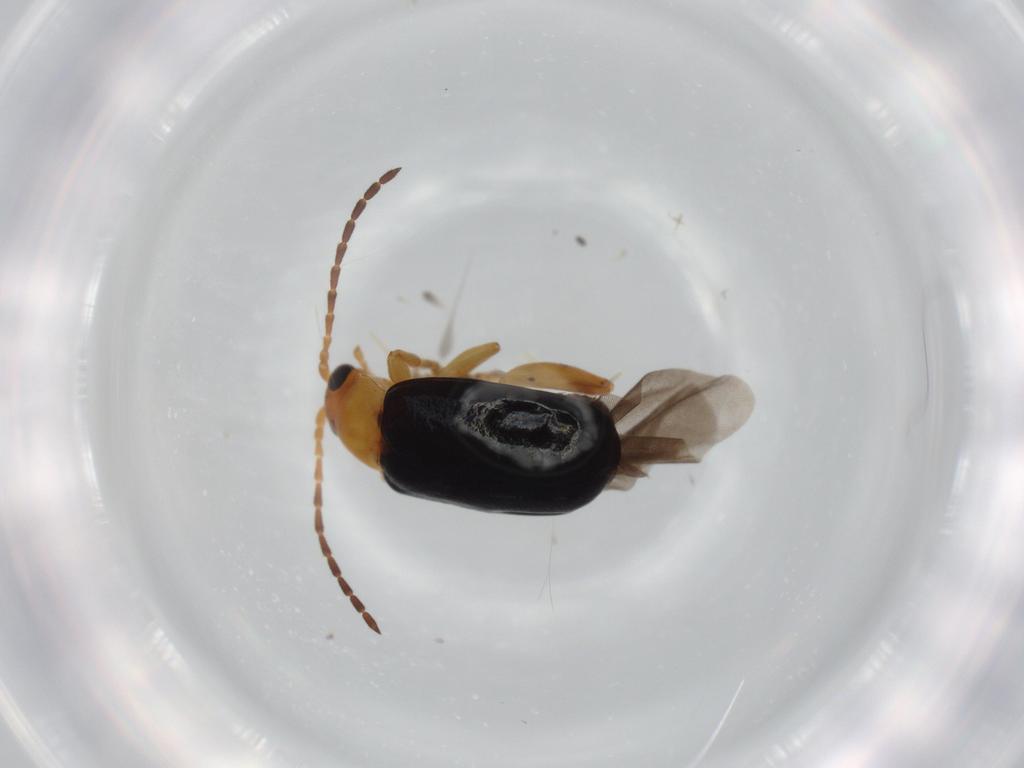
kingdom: Animalia
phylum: Arthropoda
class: Insecta
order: Coleoptera
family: Chrysomelidae
